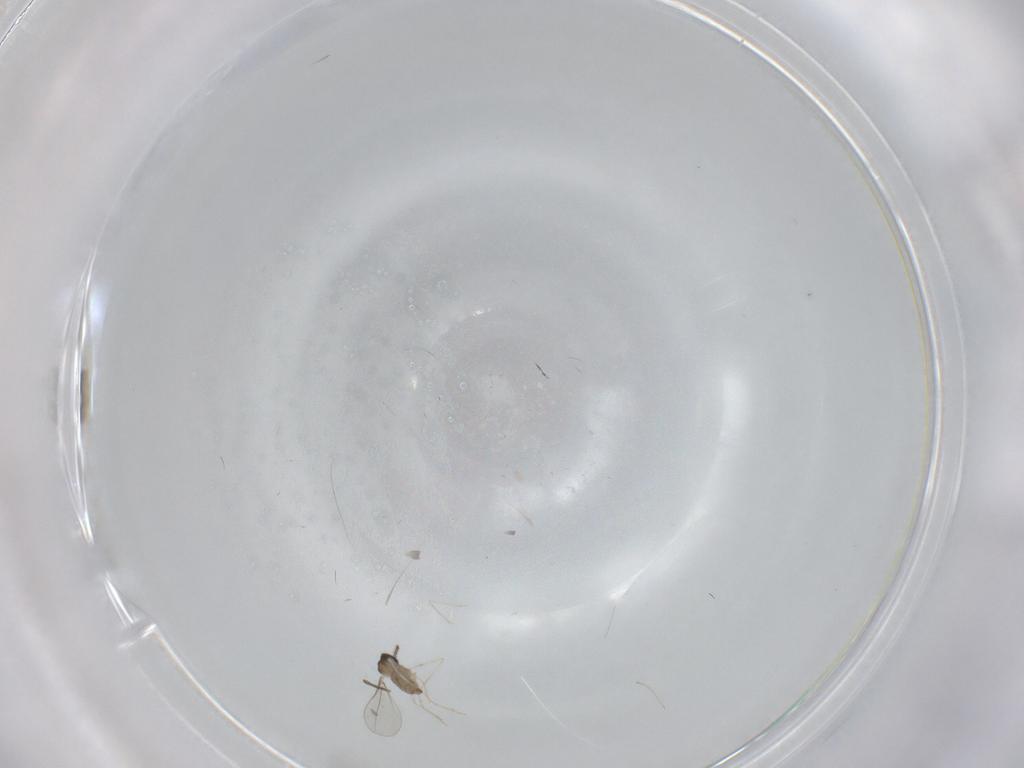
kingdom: Animalia
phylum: Arthropoda
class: Insecta
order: Diptera
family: Cecidomyiidae
